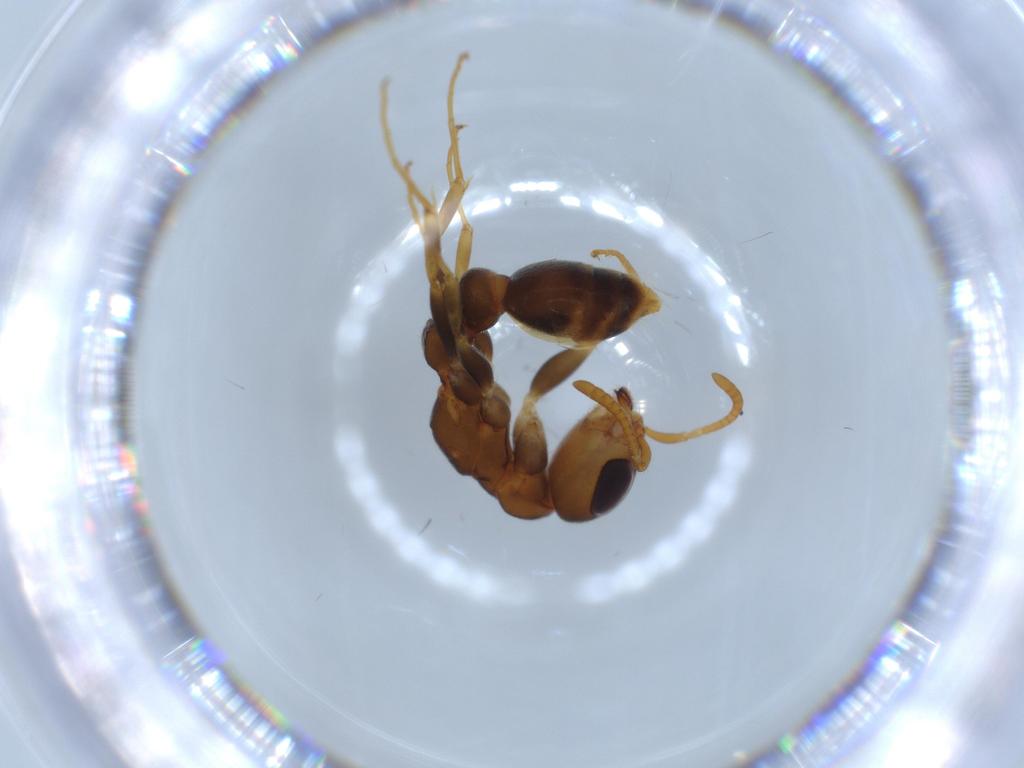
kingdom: Animalia
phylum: Arthropoda
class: Insecta
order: Hymenoptera
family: Formicidae
